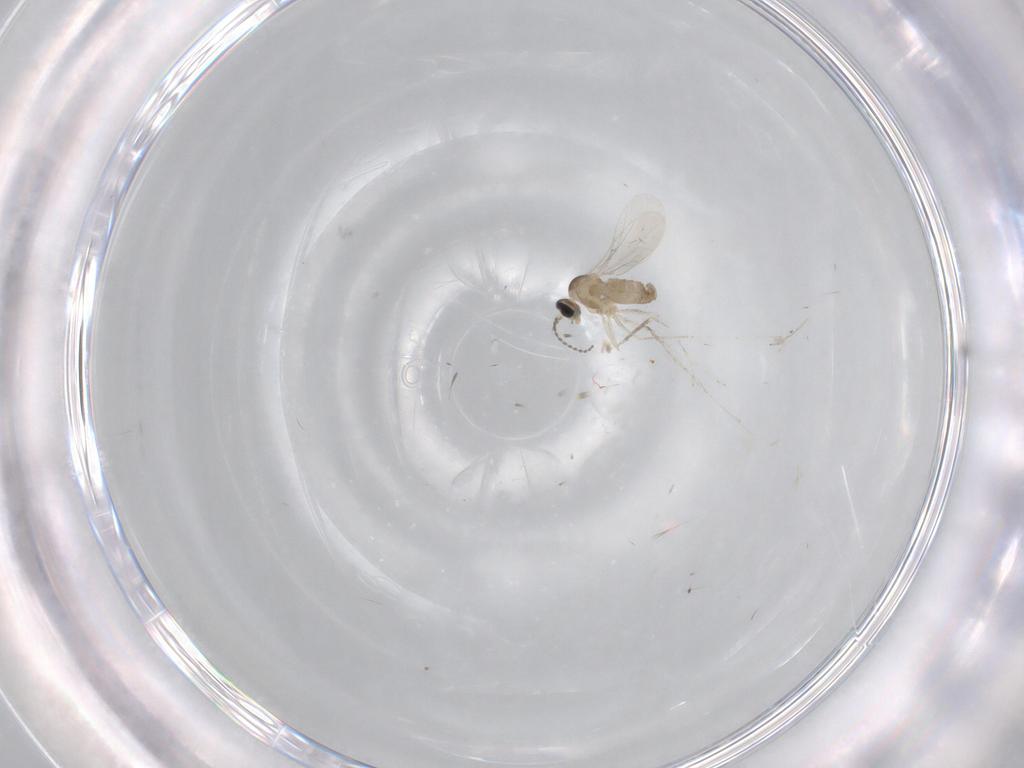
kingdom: Animalia
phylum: Arthropoda
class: Insecta
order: Diptera
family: Cecidomyiidae
